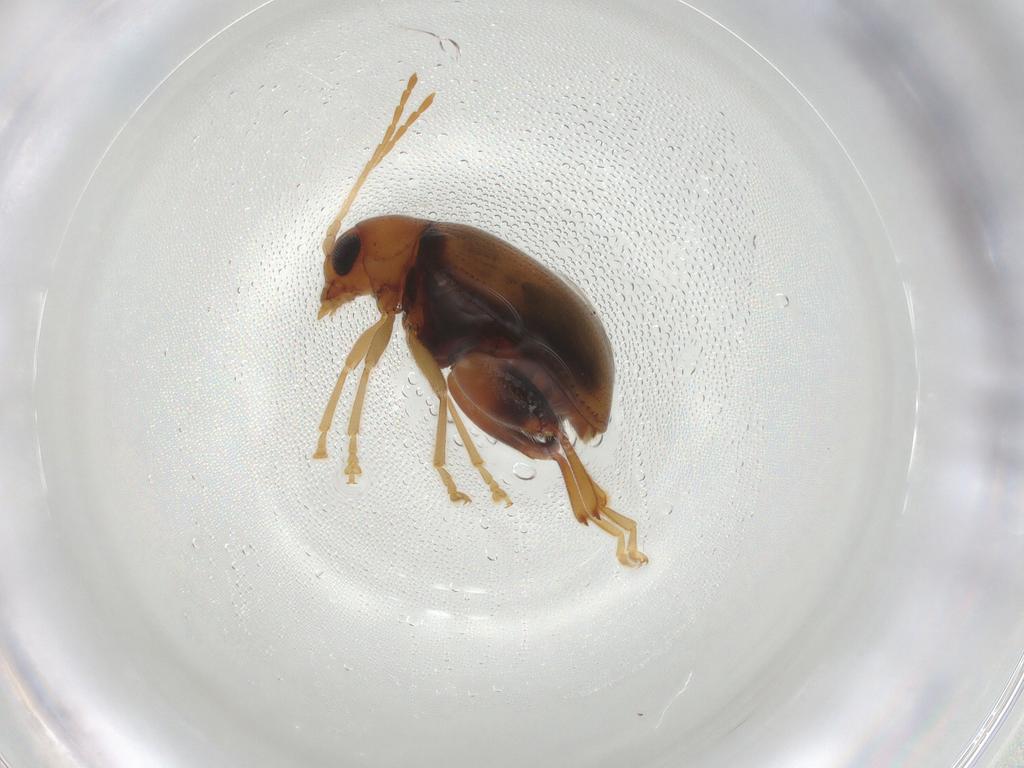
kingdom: Animalia
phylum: Arthropoda
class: Insecta
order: Coleoptera
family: Chrysomelidae
